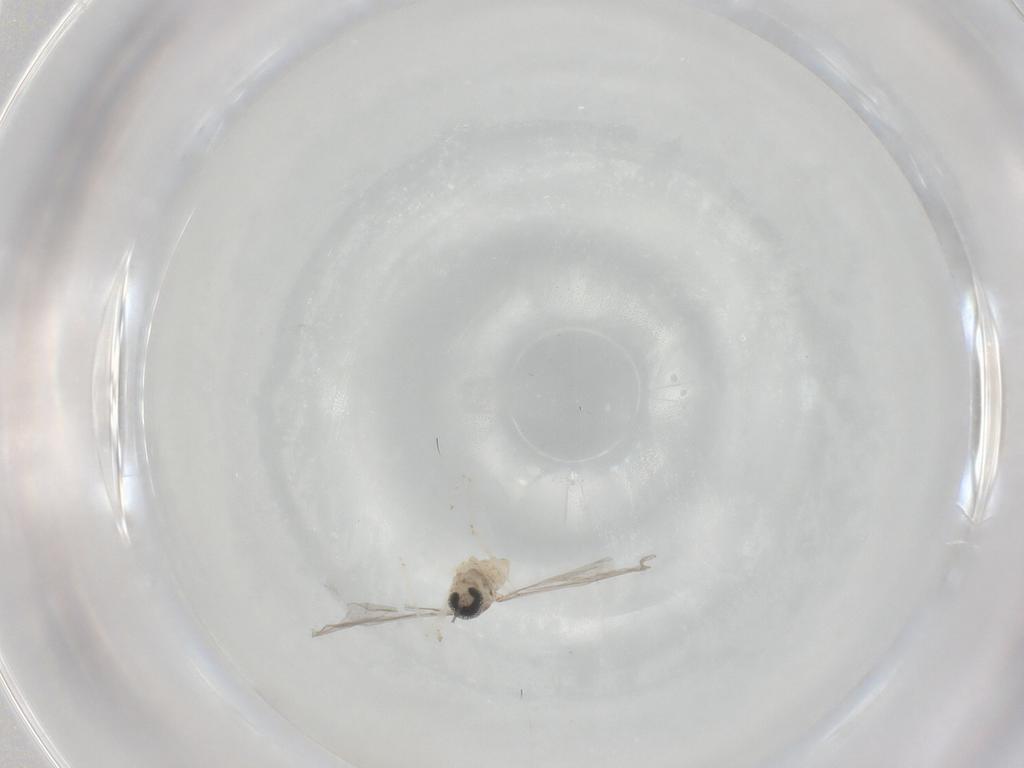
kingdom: Animalia
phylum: Arthropoda
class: Insecta
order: Diptera
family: Cecidomyiidae
